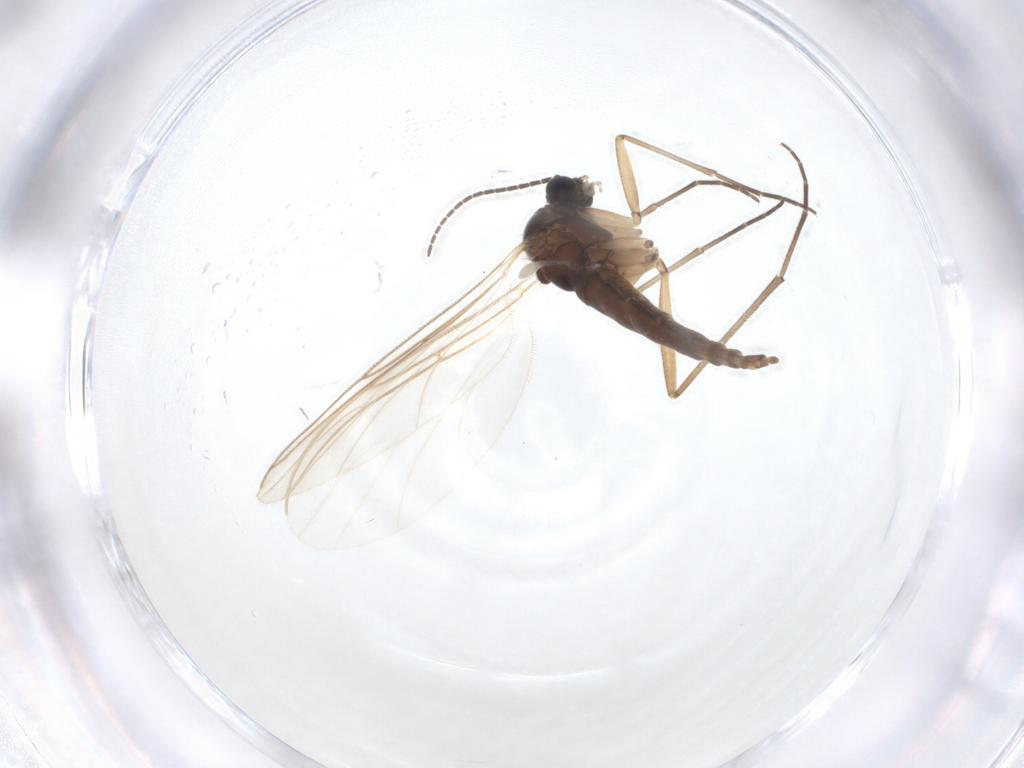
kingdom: Animalia
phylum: Arthropoda
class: Insecta
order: Diptera
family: Sciaridae
